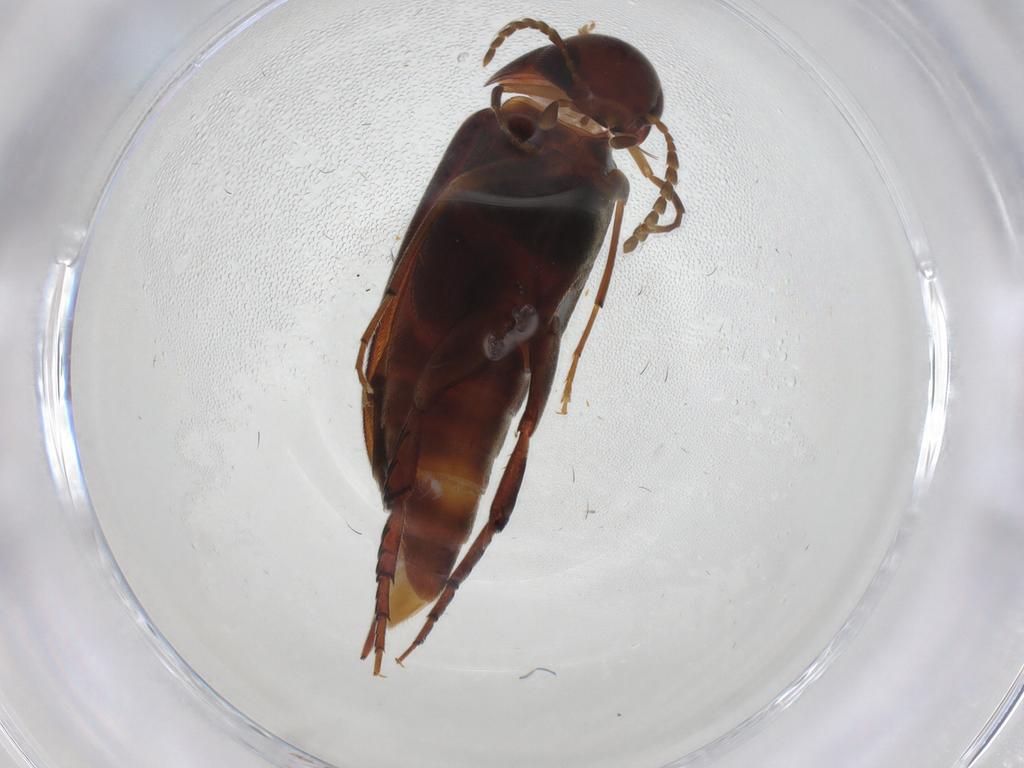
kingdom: Animalia
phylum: Arthropoda
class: Insecta
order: Coleoptera
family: Mordellidae
